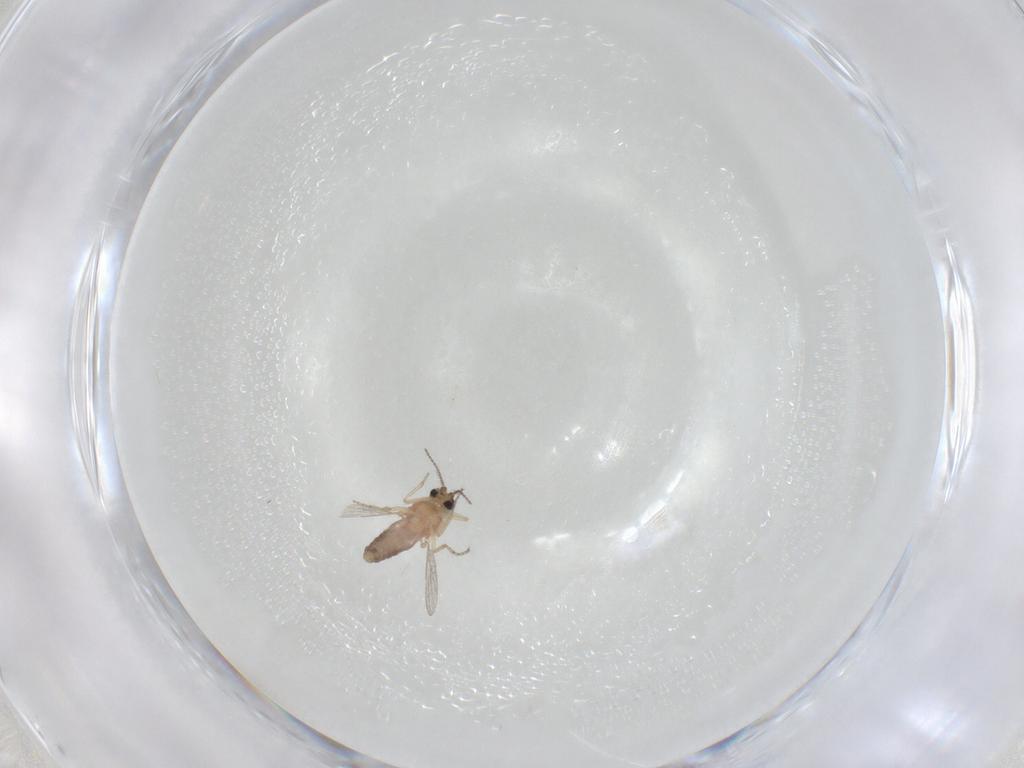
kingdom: Animalia
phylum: Arthropoda
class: Insecta
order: Diptera
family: Ceratopogonidae
